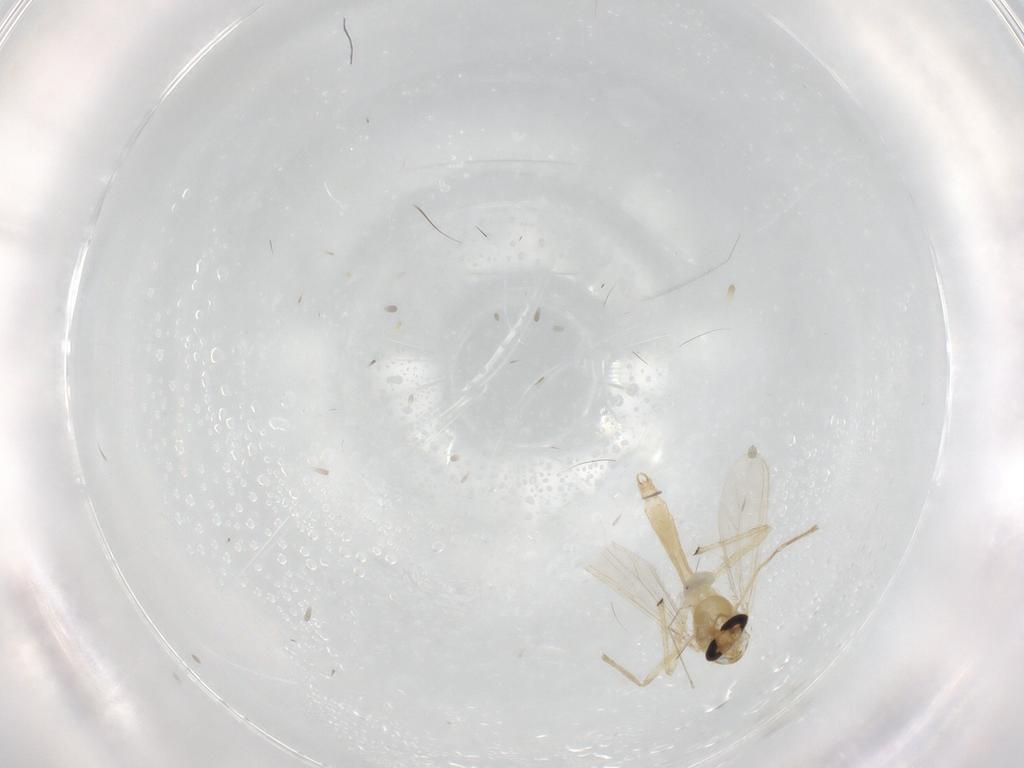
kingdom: Animalia
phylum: Arthropoda
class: Insecta
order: Diptera
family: Chironomidae
